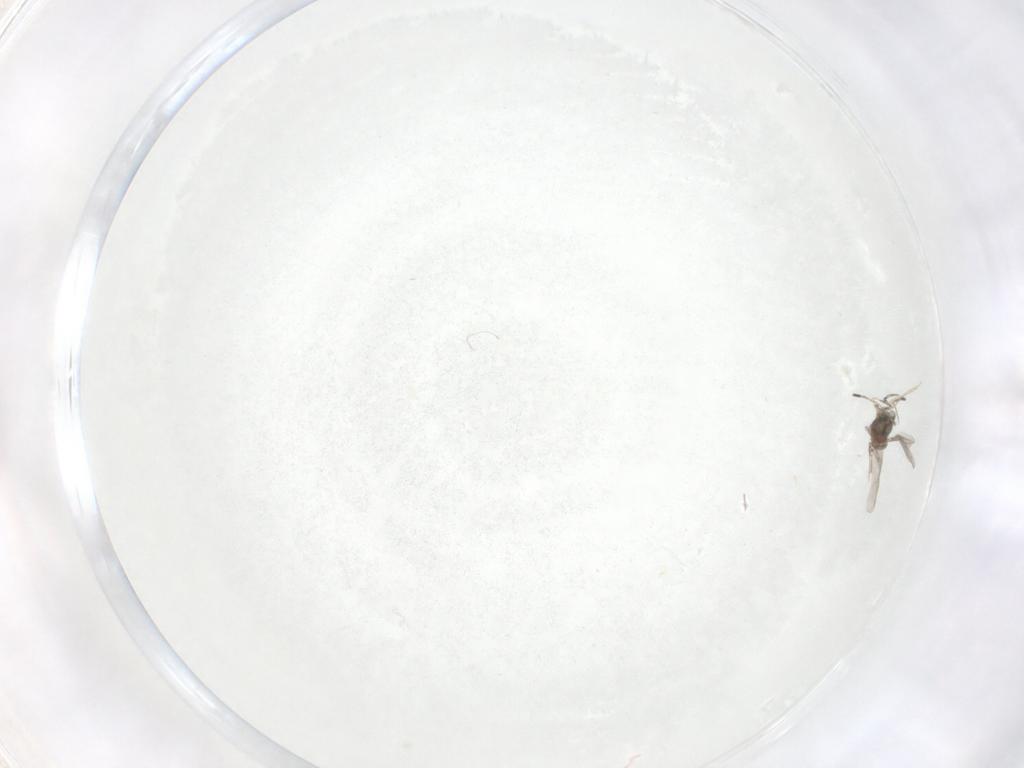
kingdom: Animalia
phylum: Arthropoda
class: Insecta
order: Diptera
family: Cecidomyiidae
